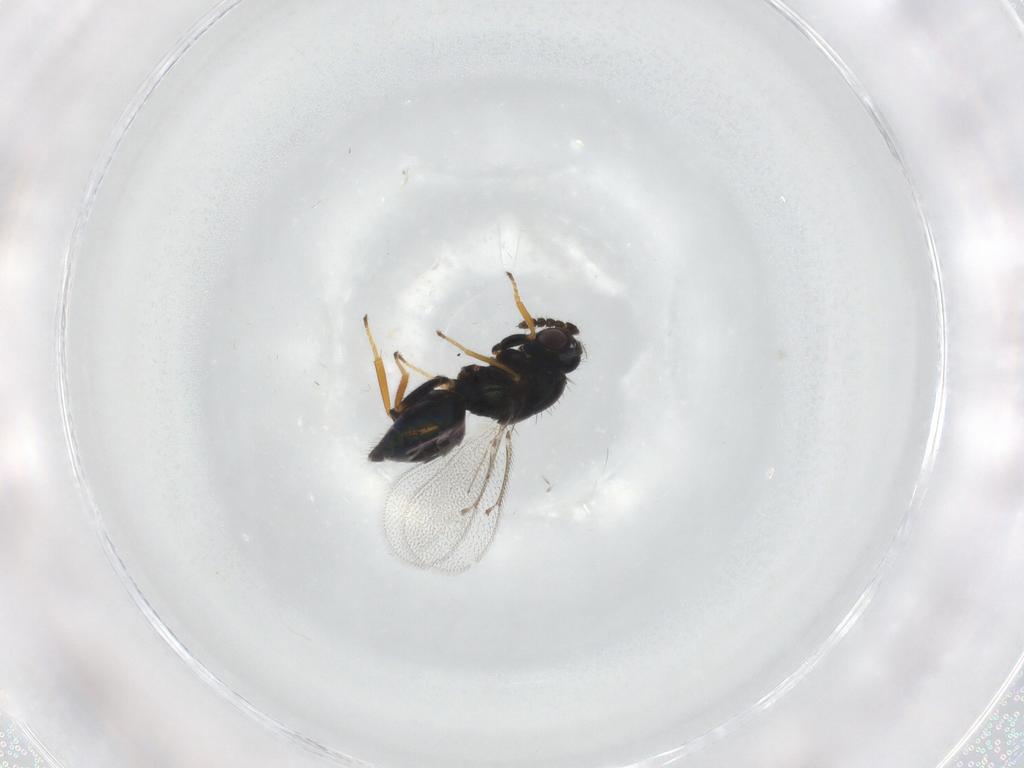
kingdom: Animalia
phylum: Arthropoda
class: Insecta
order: Hymenoptera
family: Eulophidae
